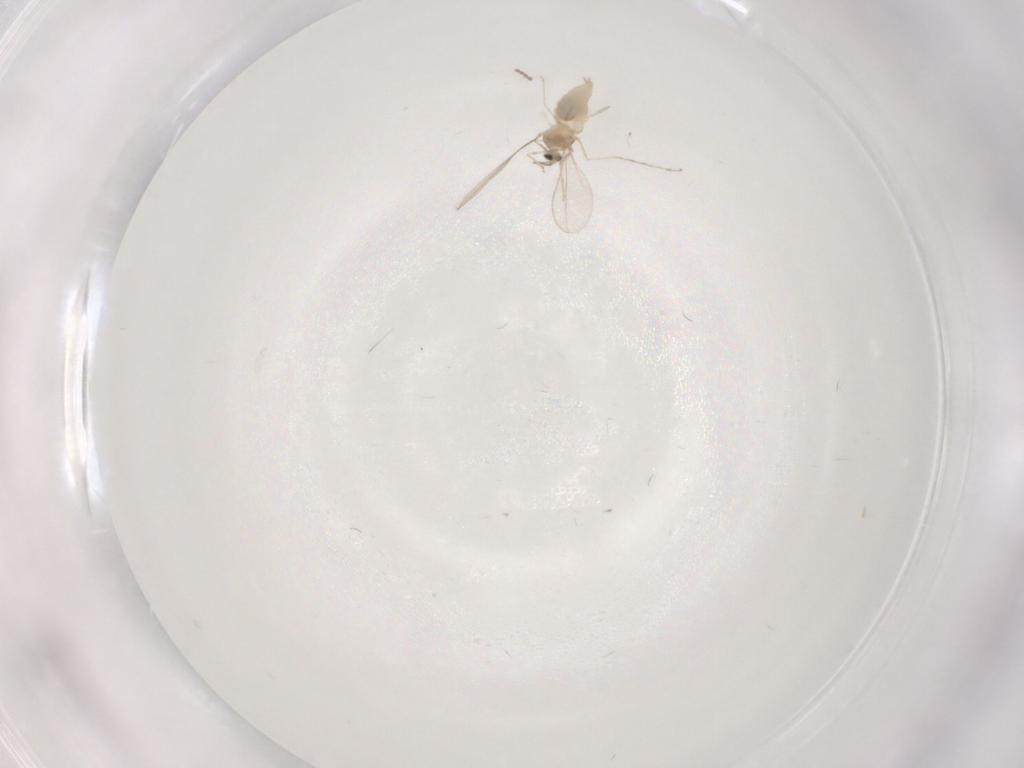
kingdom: Animalia
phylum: Arthropoda
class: Insecta
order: Diptera
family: Cecidomyiidae
